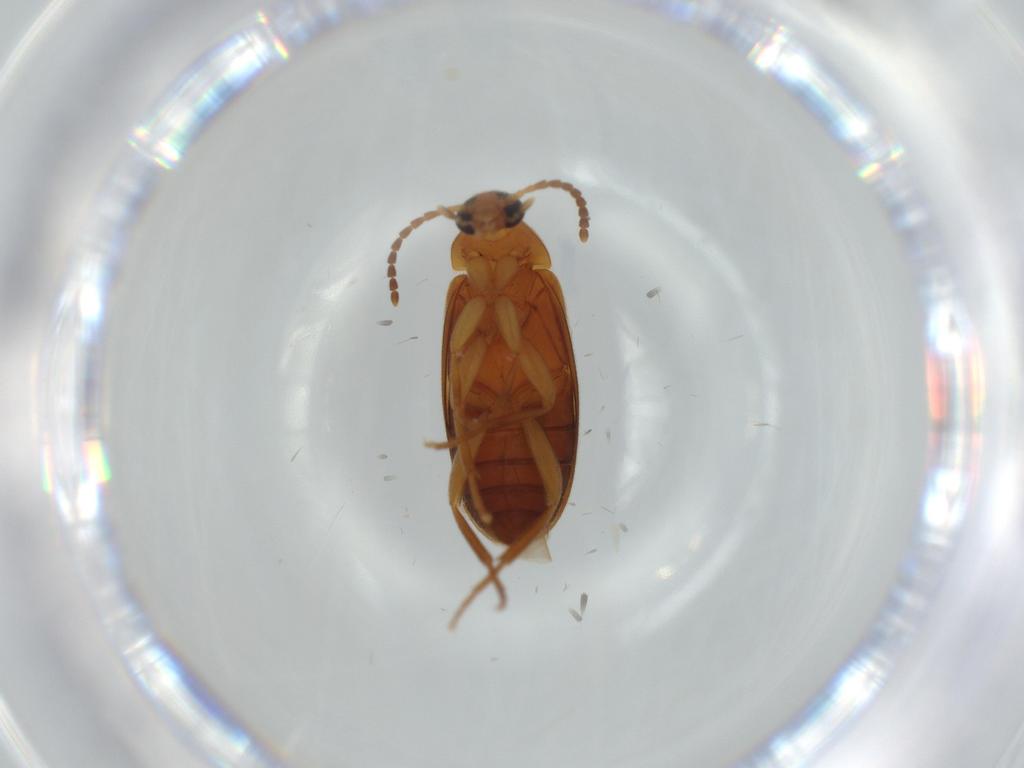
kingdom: Animalia
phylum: Arthropoda
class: Insecta
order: Coleoptera
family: Scraptiidae
